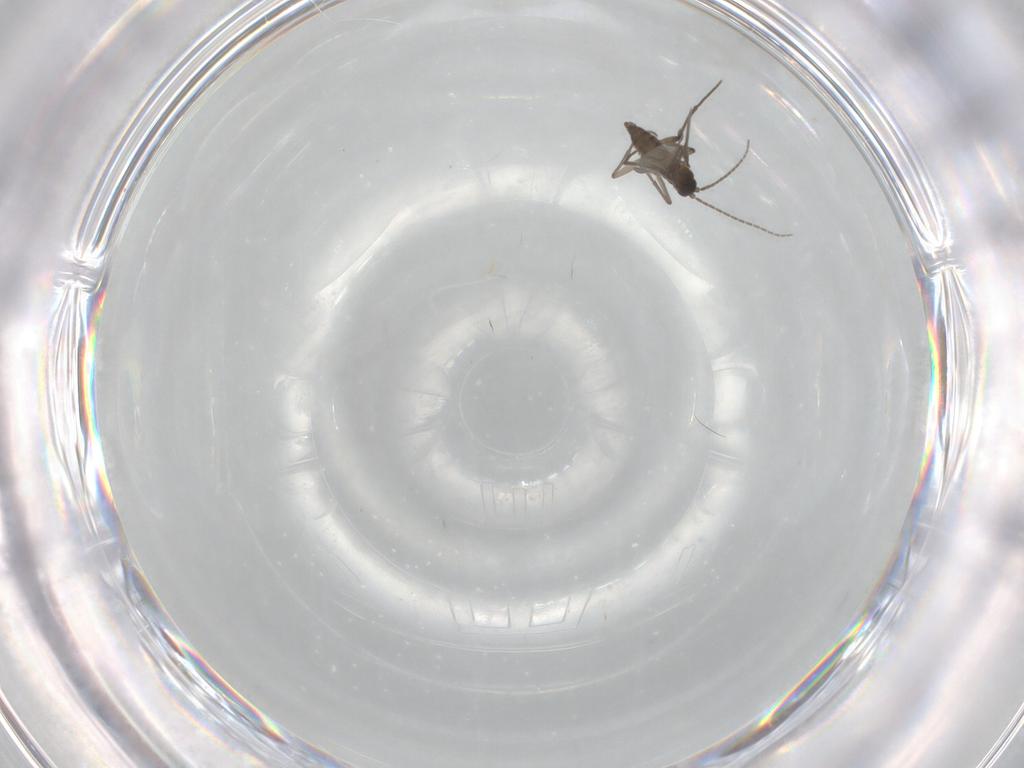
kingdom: Animalia
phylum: Arthropoda
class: Insecta
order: Diptera
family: Sciaridae
